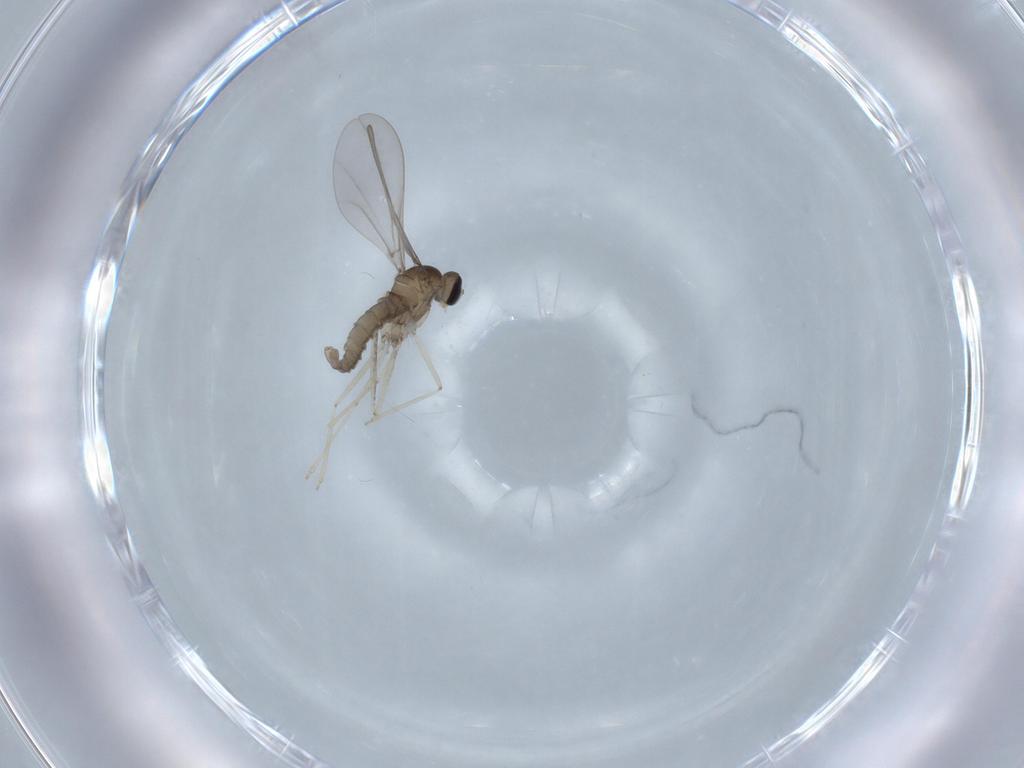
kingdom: Animalia
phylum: Arthropoda
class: Insecta
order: Diptera
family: Cecidomyiidae
